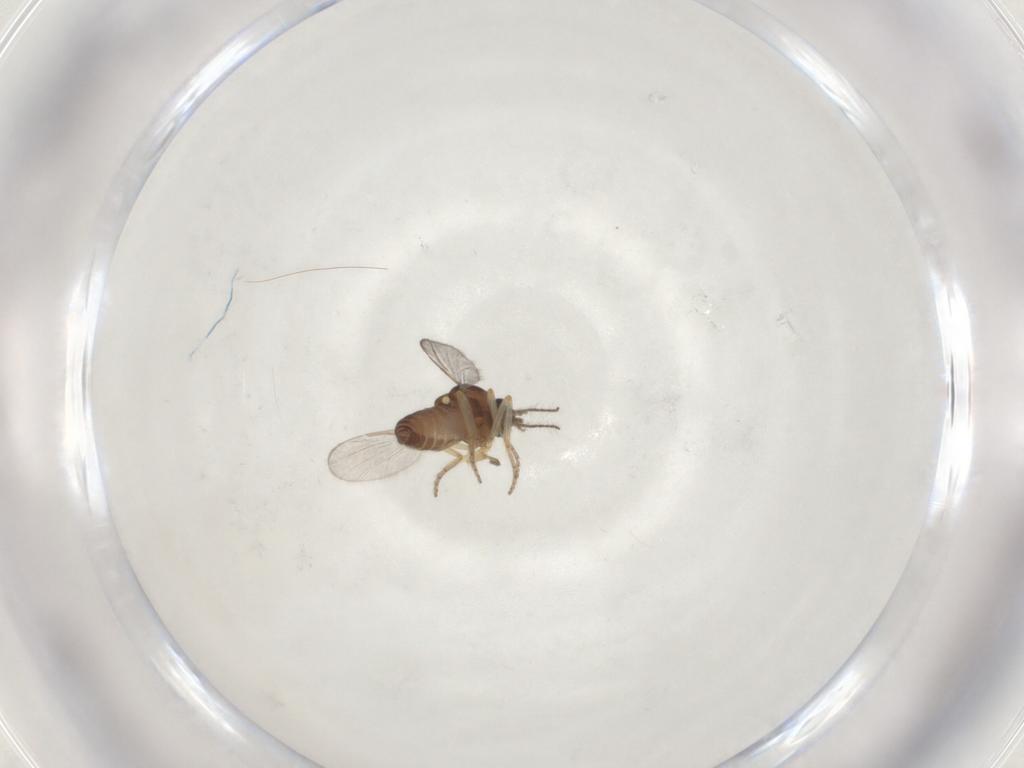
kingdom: Animalia
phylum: Arthropoda
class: Insecta
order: Diptera
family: Ceratopogonidae
